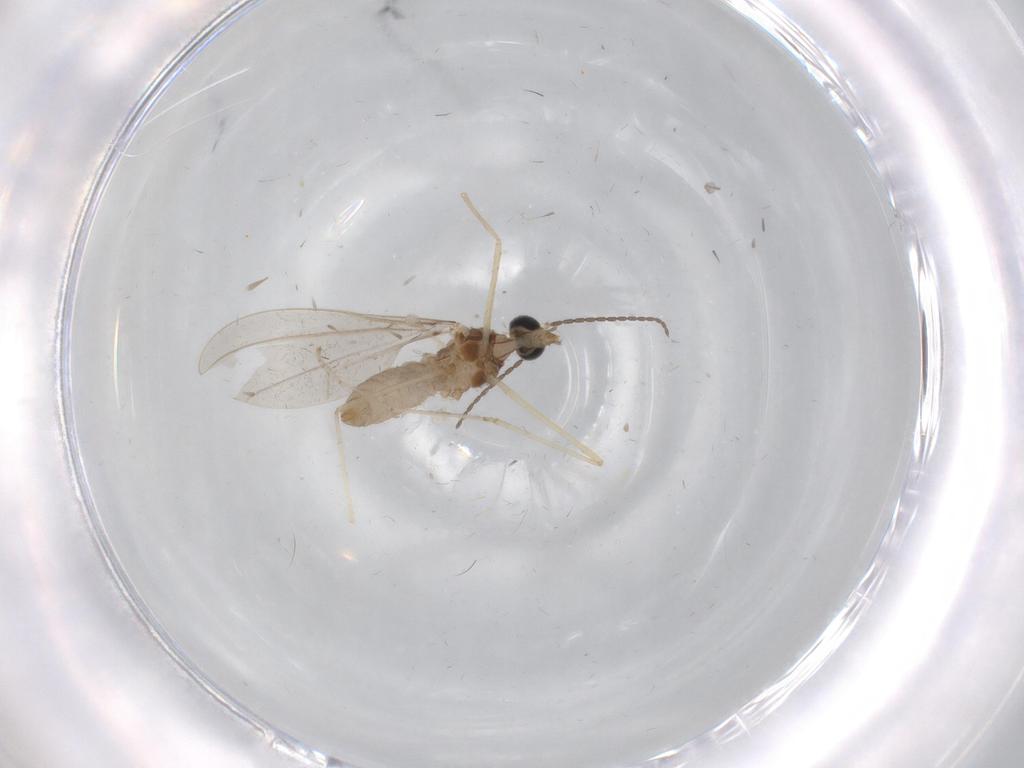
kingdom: Animalia
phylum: Arthropoda
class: Insecta
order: Diptera
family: Cecidomyiidae
